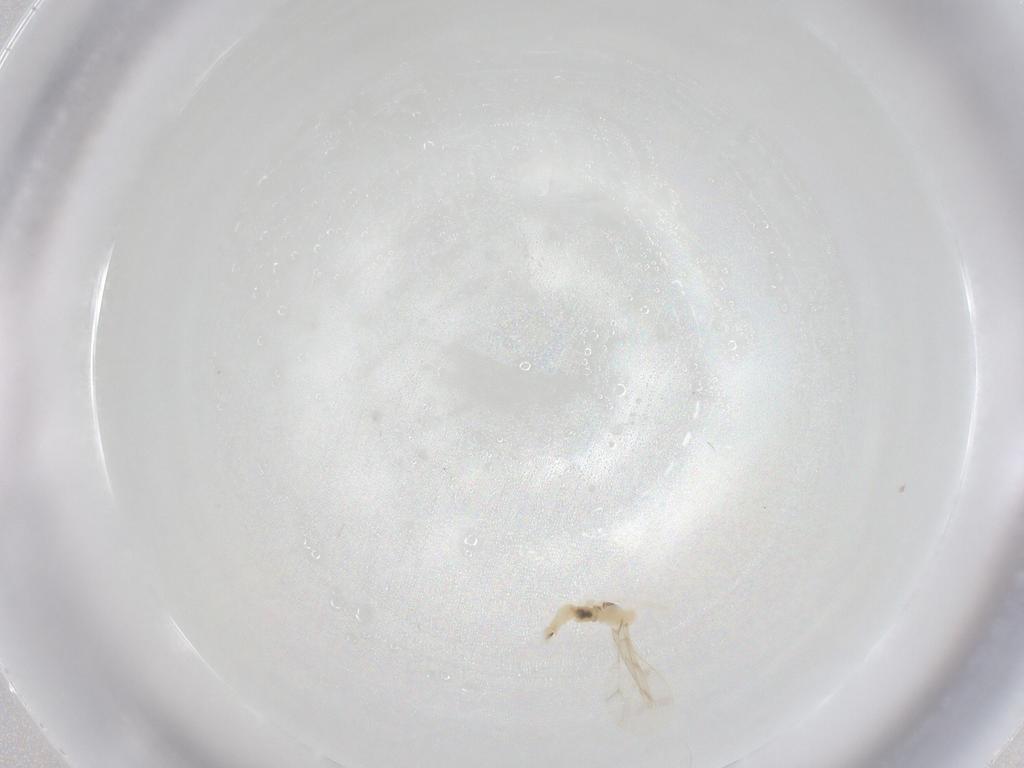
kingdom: Animalia
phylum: Arthropoda
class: Insecta
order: Diptera
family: Cecidomyiidae
